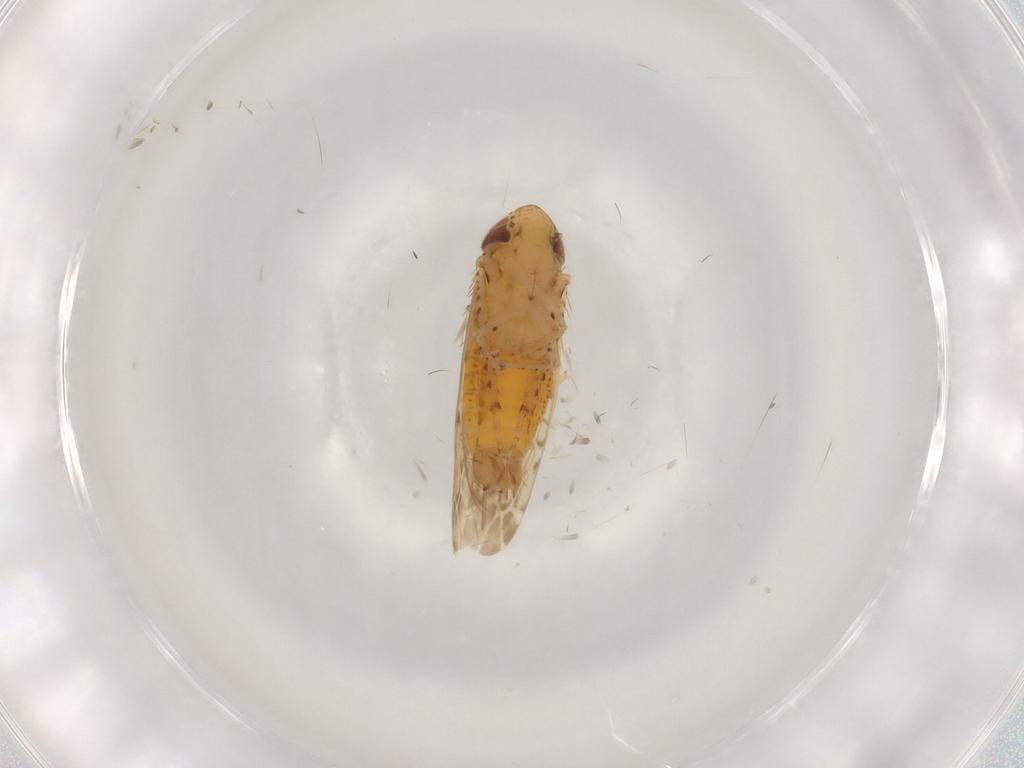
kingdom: Animalia
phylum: Arthropoda
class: Insecta
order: Hemiptera
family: Cicadellidae
